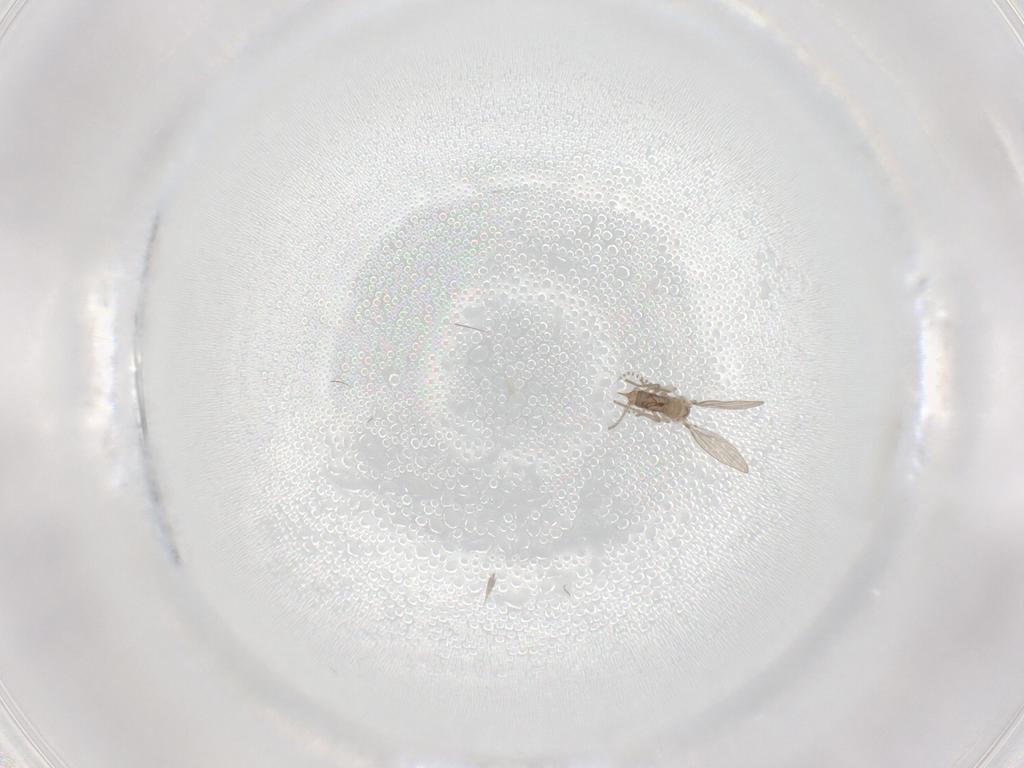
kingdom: Animalia
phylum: Arthropoda
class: Insecta
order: Diptera
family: Psychodidae
